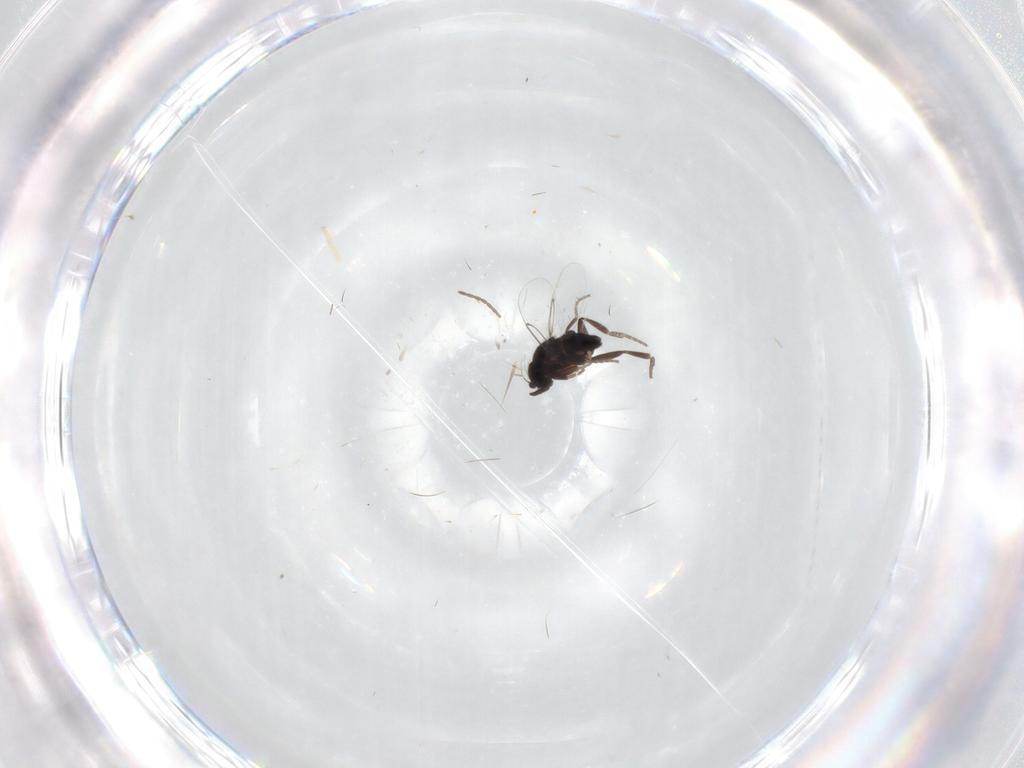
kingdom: Animalia
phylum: Arthropoda
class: Insecta
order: Diptera
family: Phoridae
